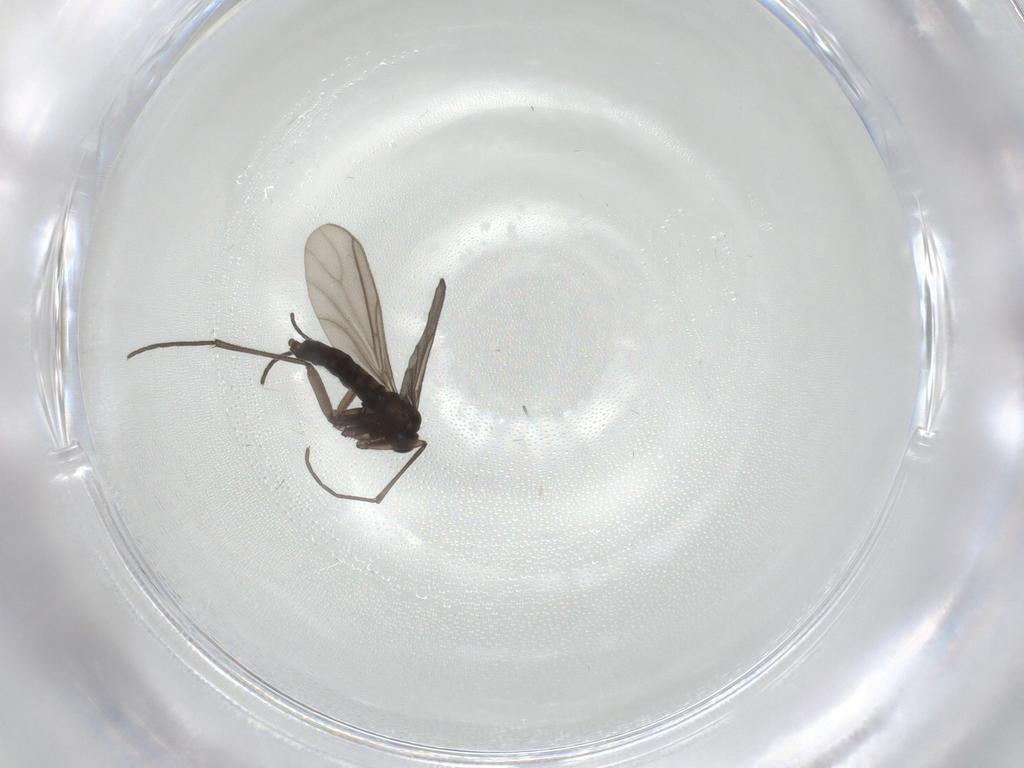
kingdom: Animalia
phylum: Arthropoda
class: Insecta
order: Diptera
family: Sciaridae
